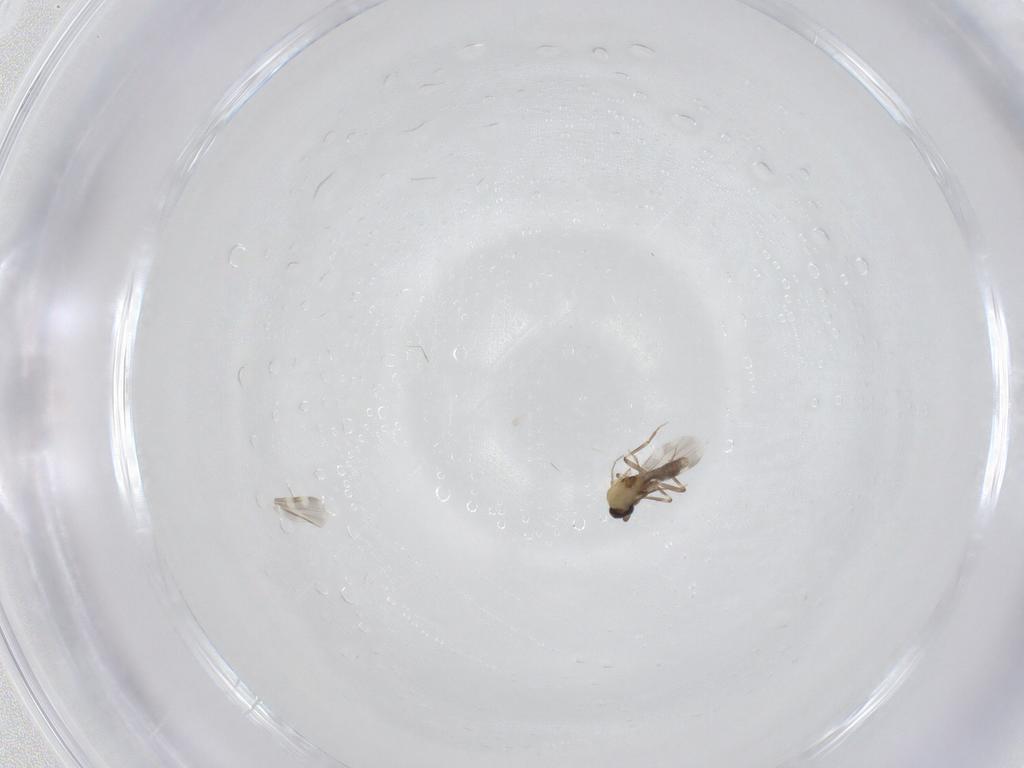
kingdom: Animalia
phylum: Arthropoda
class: Insecta
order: Diptera
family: Ceratopogonidae
